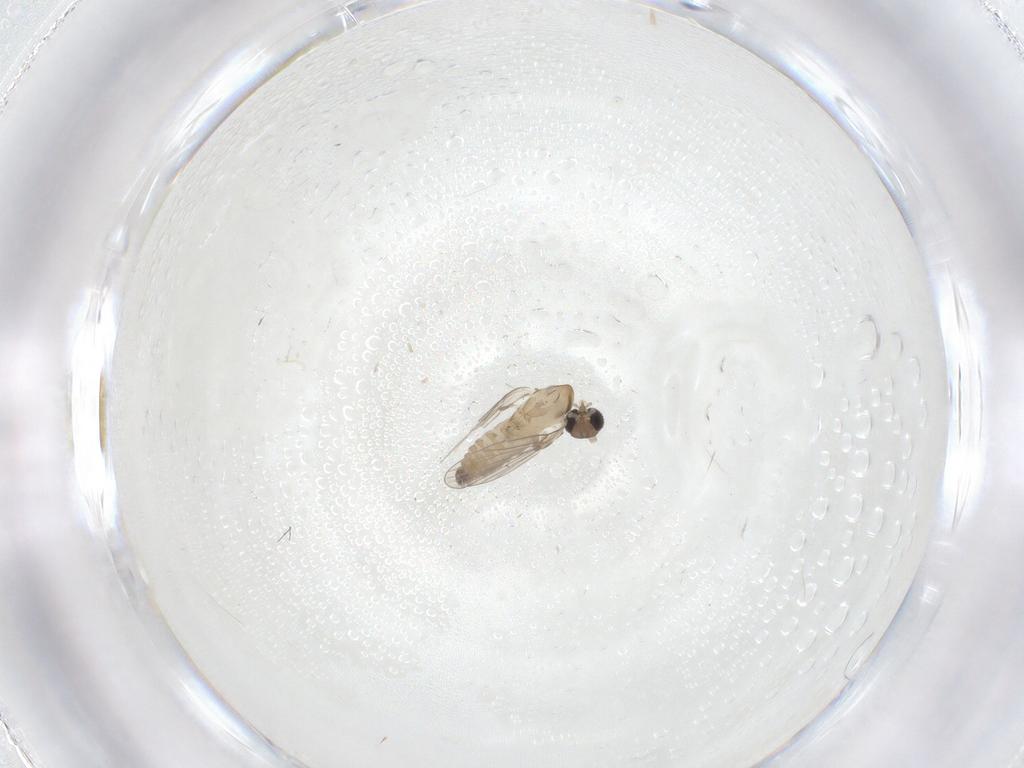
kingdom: Animalia
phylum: Arthropoda
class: Insecta
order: Diptera
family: Psychodidae
